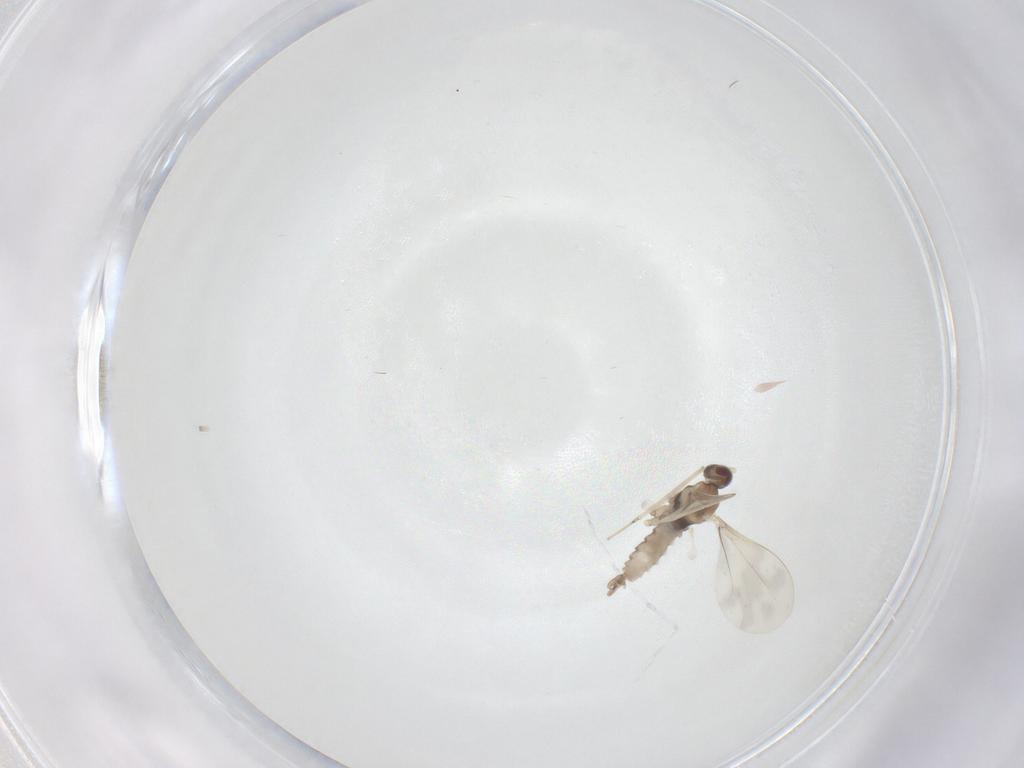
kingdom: Animalia
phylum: Arthropoda
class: Insecta
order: Diptera
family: Cecidomyiidae
